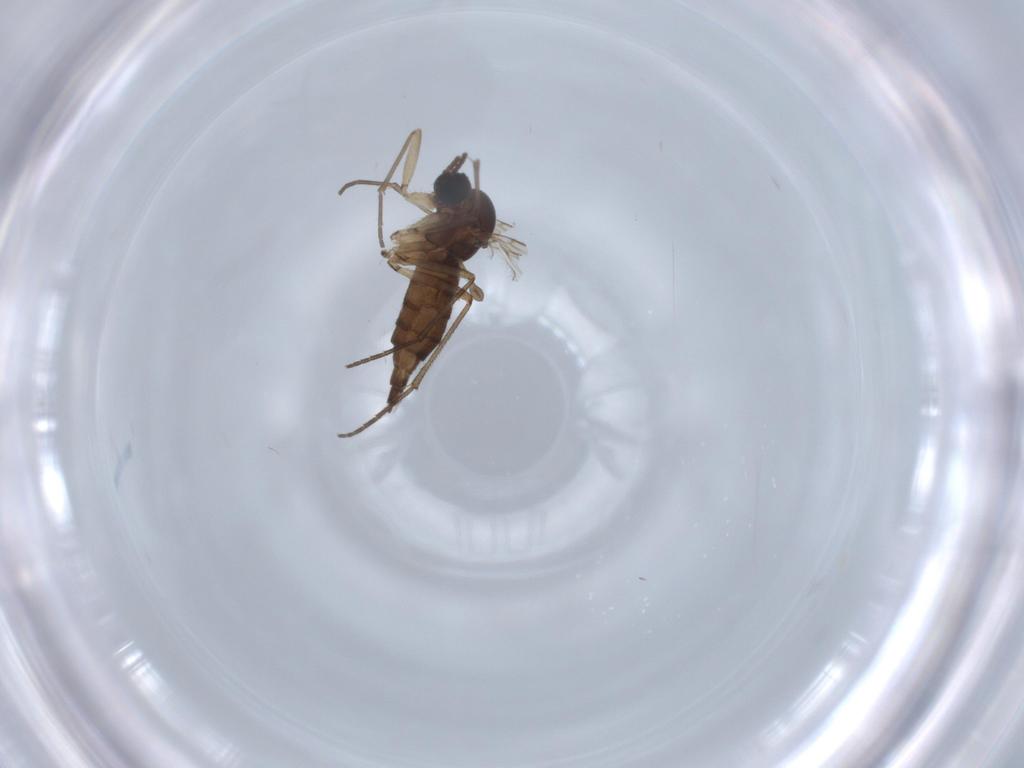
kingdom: Animalia
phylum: Arthropoda
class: Insecta
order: Diptera
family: Sciaridae
